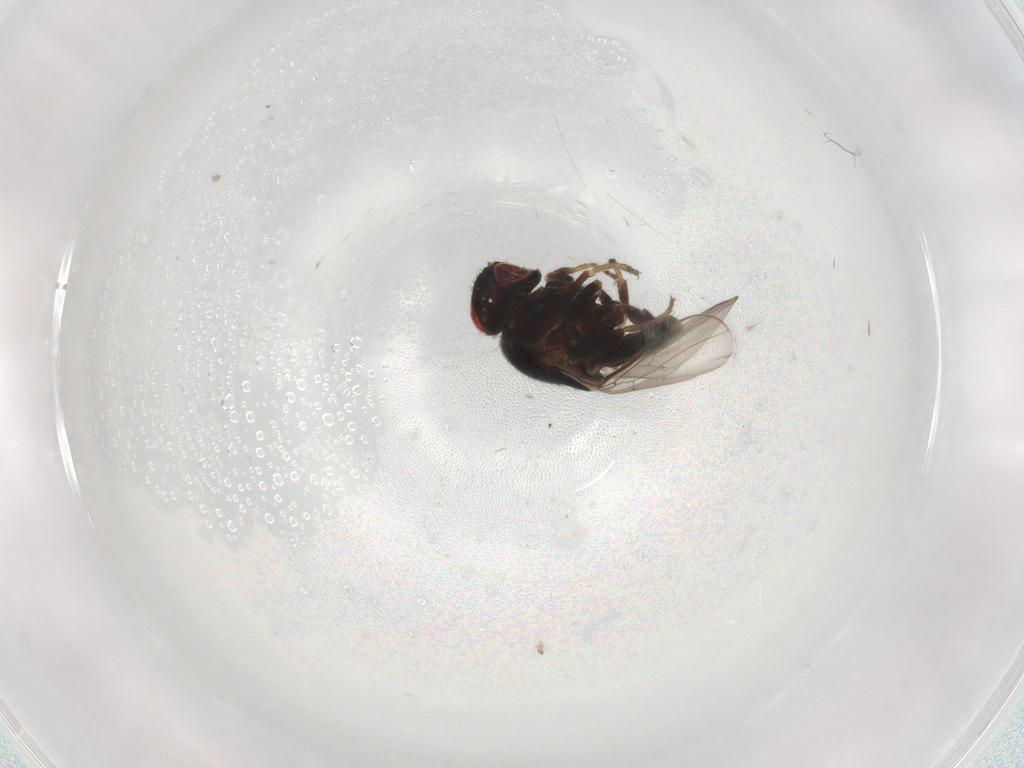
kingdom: Animalia
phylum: Arthropoda
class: Insecta
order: Diptera
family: Chloropidae
